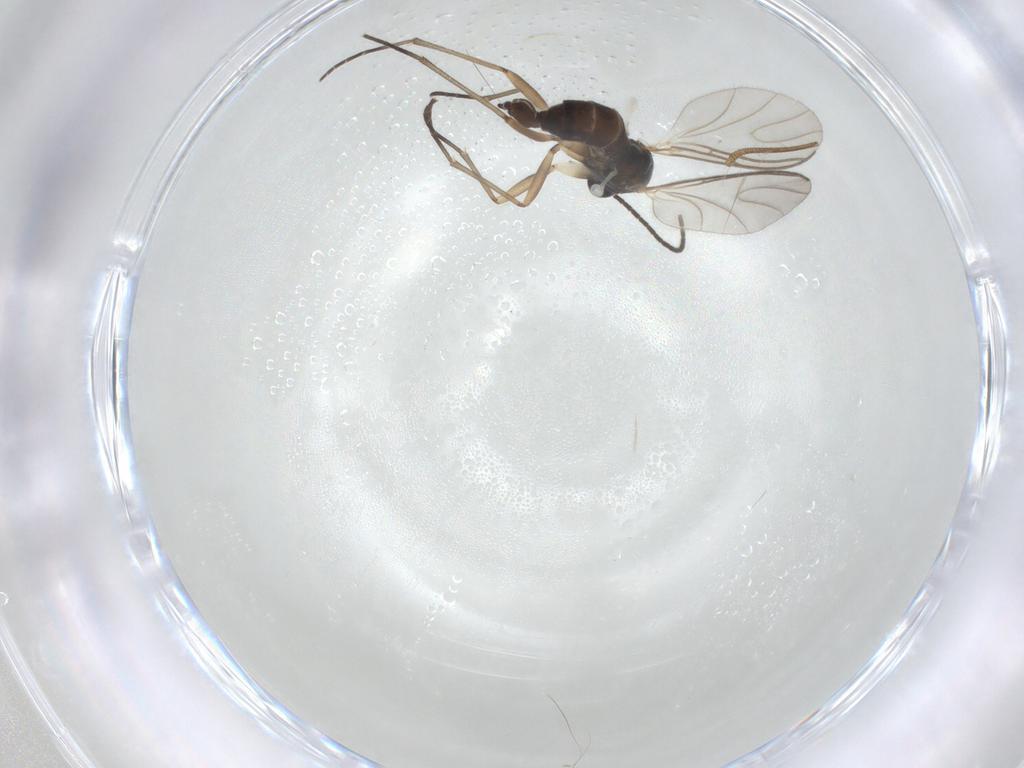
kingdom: Animalia
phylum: Arthropoda
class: Insecta
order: Diptera
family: Sciaridae
